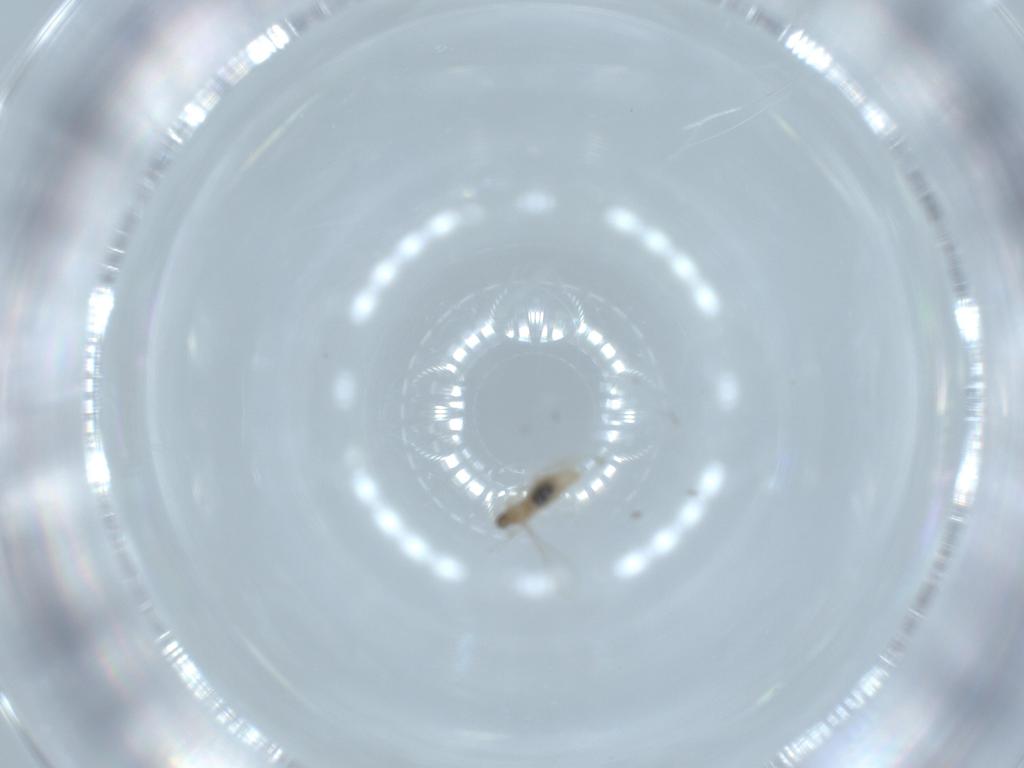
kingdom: Animalia
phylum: Arthropoda
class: Insecta
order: Diptera
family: Cecidomyiidae
